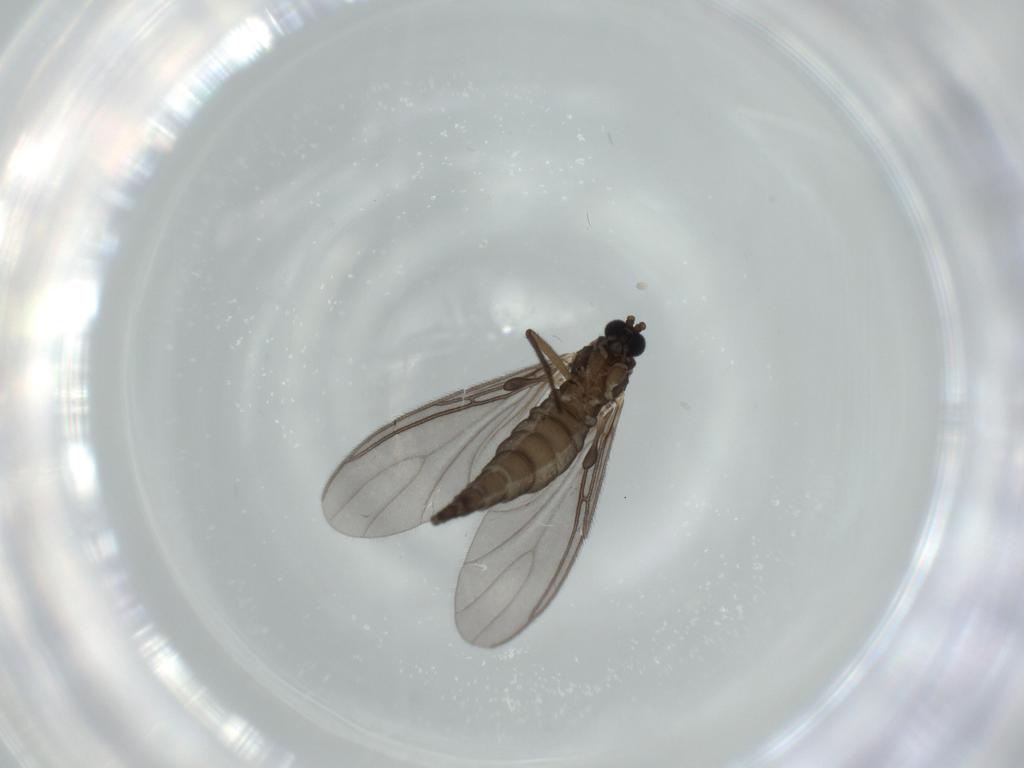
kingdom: Animalia
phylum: Arthropoda
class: Insecta
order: Diptera
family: Sciaridae
